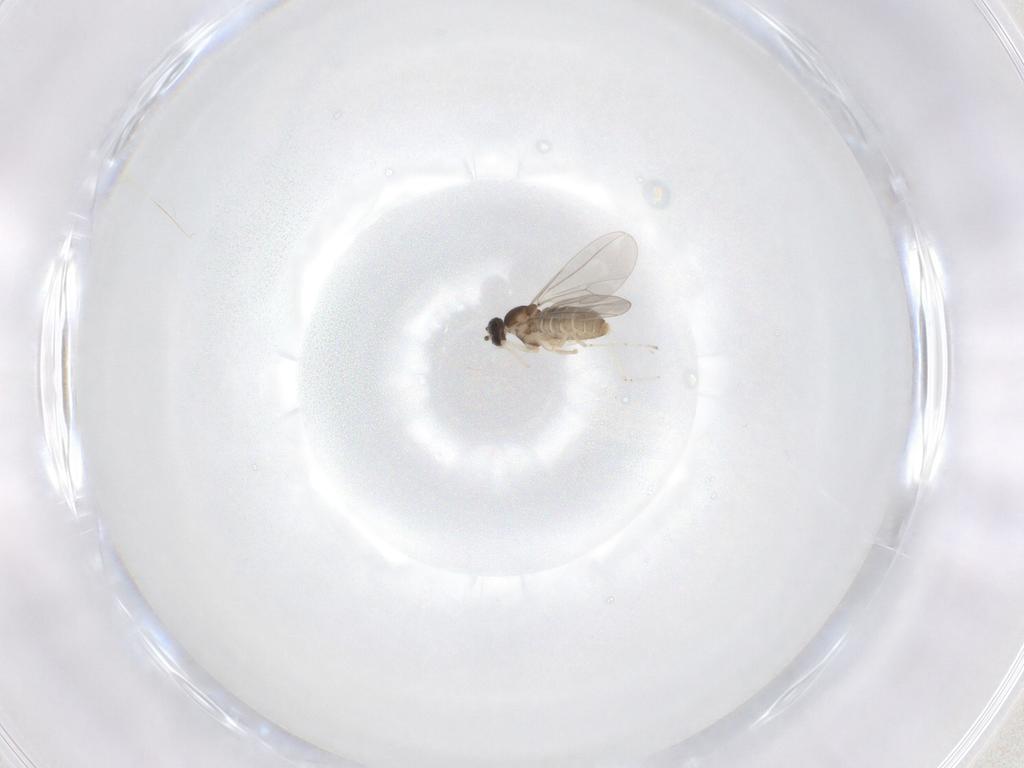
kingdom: Animalia
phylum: Arthropoda
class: Insecta
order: Diptera
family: Cecidomyiidae
